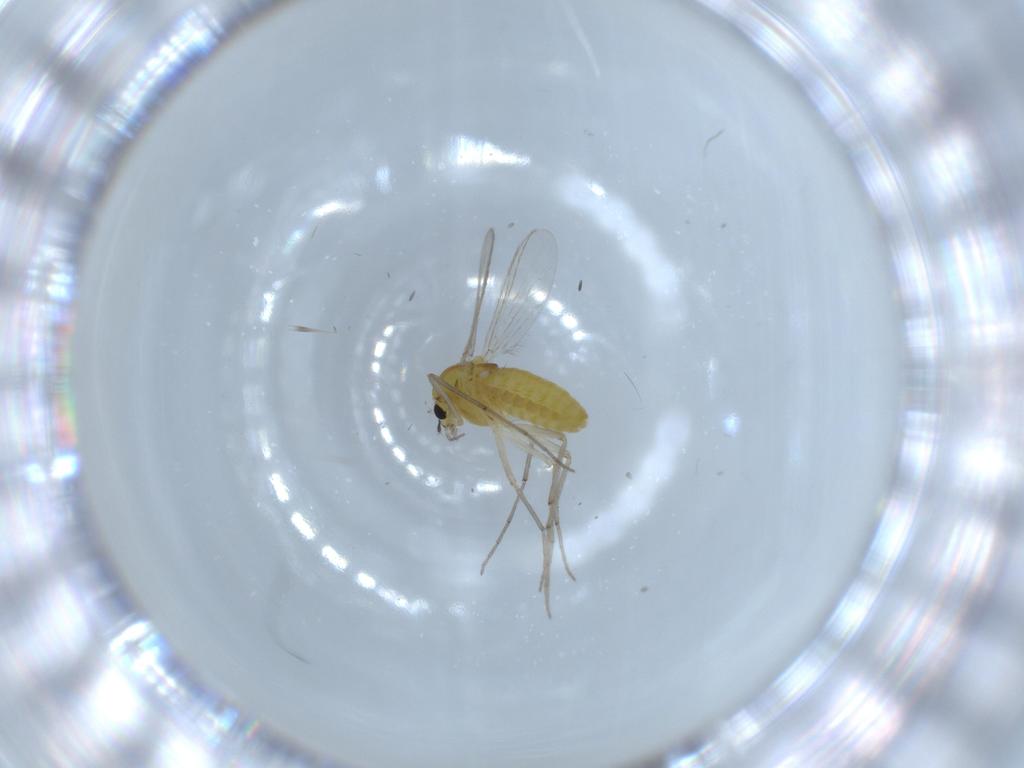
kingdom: Animalia
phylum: Arthropoda
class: Insecta
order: Diptera
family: Chironomidae
